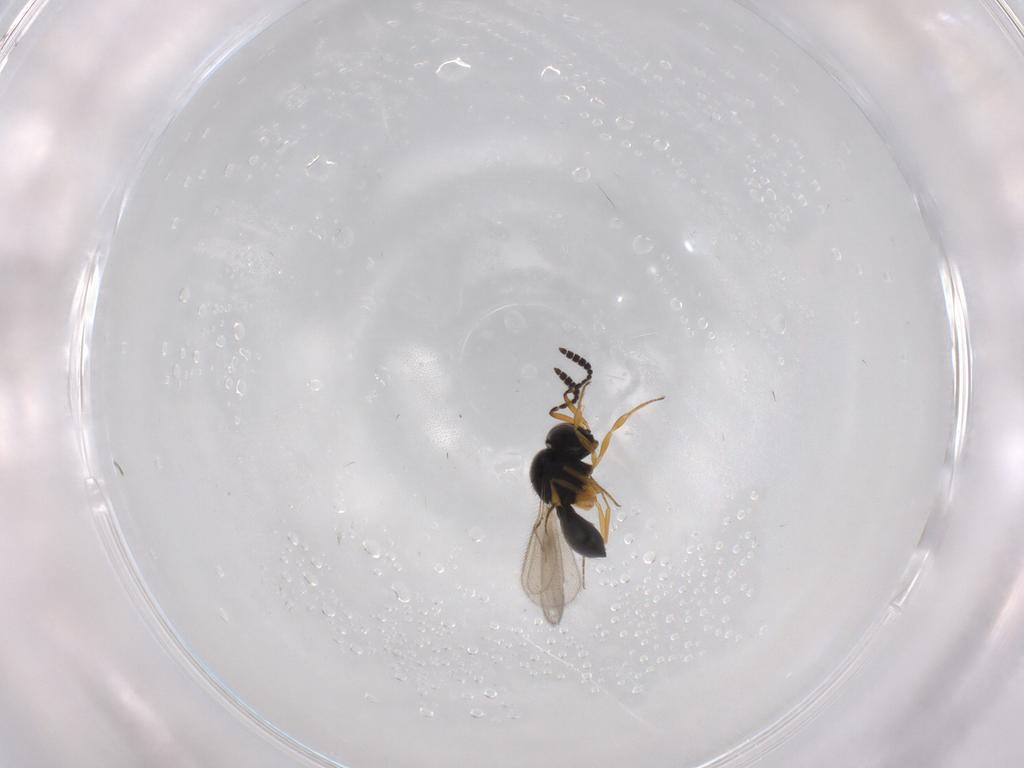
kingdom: Animalia
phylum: Arthropoda
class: Insecta
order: Hymenoptera
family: Scelionidae
